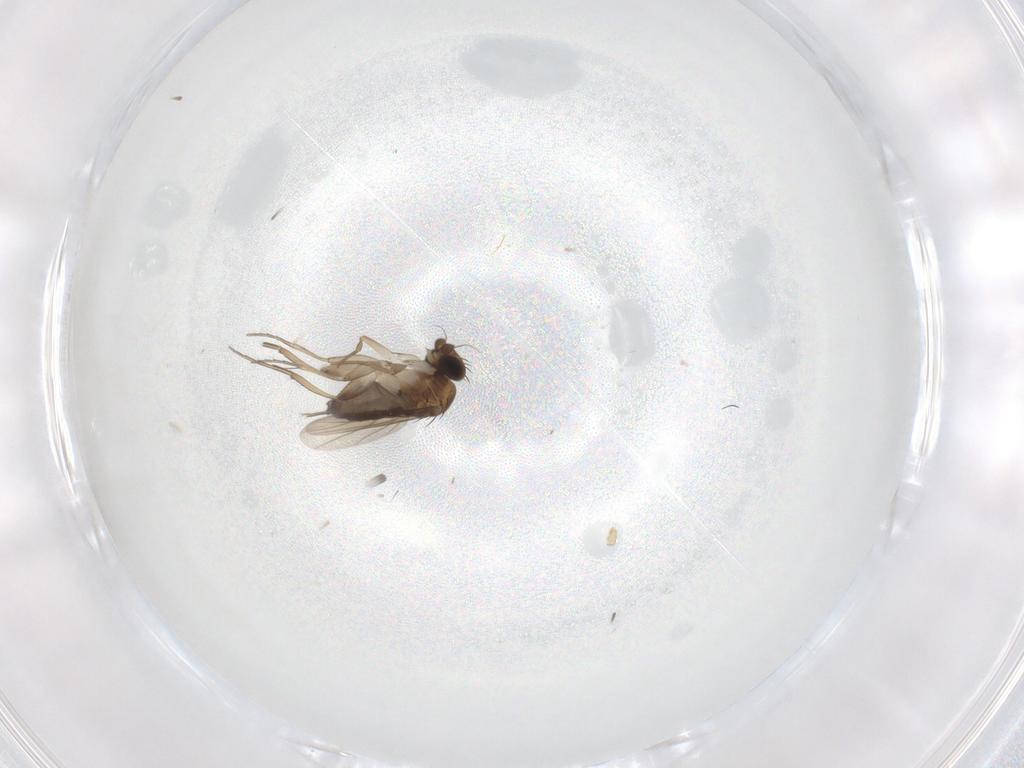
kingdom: Animalia
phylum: Arthropoda
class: Insecta
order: Diptera
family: Phoridae
